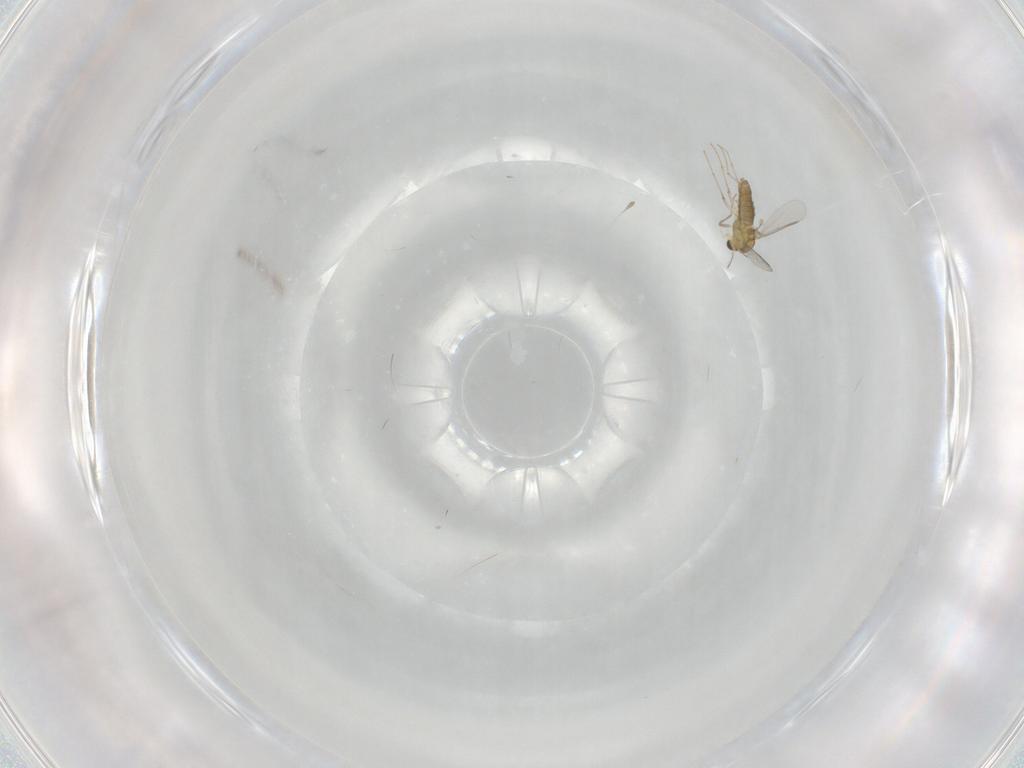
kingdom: Animalia
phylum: Arthropoda
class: Insecta
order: Diptera
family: Chironomidae
